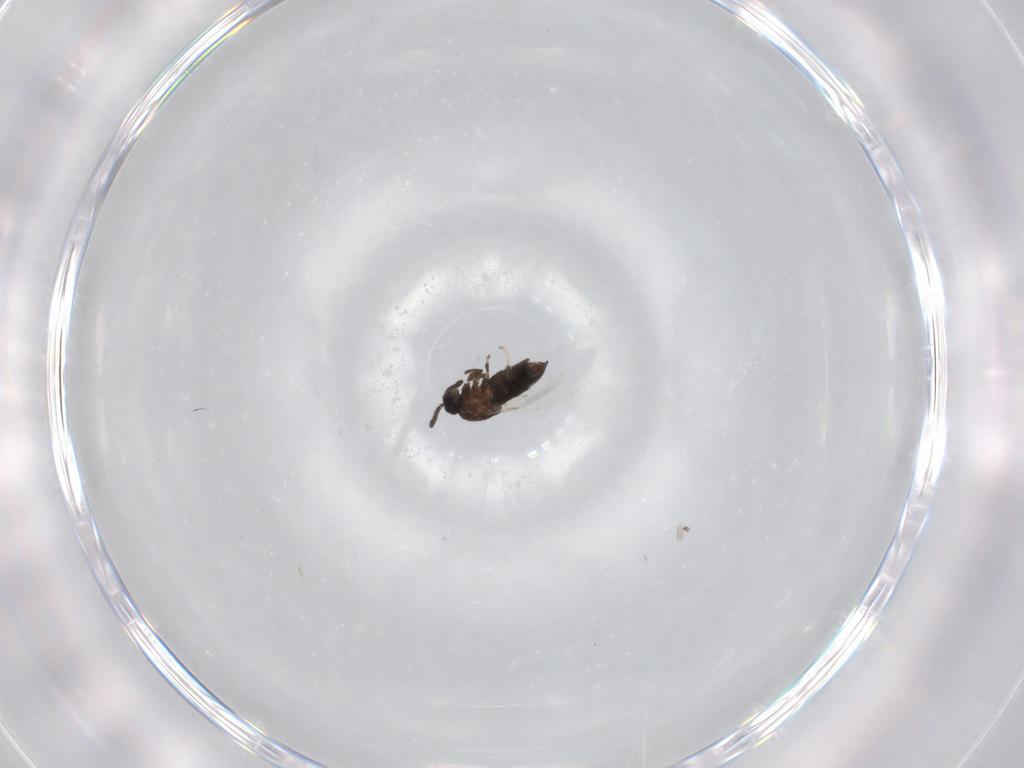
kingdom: Animalia
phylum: Arthropoda
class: Insecta
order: Diptera
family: Scatopsidae
